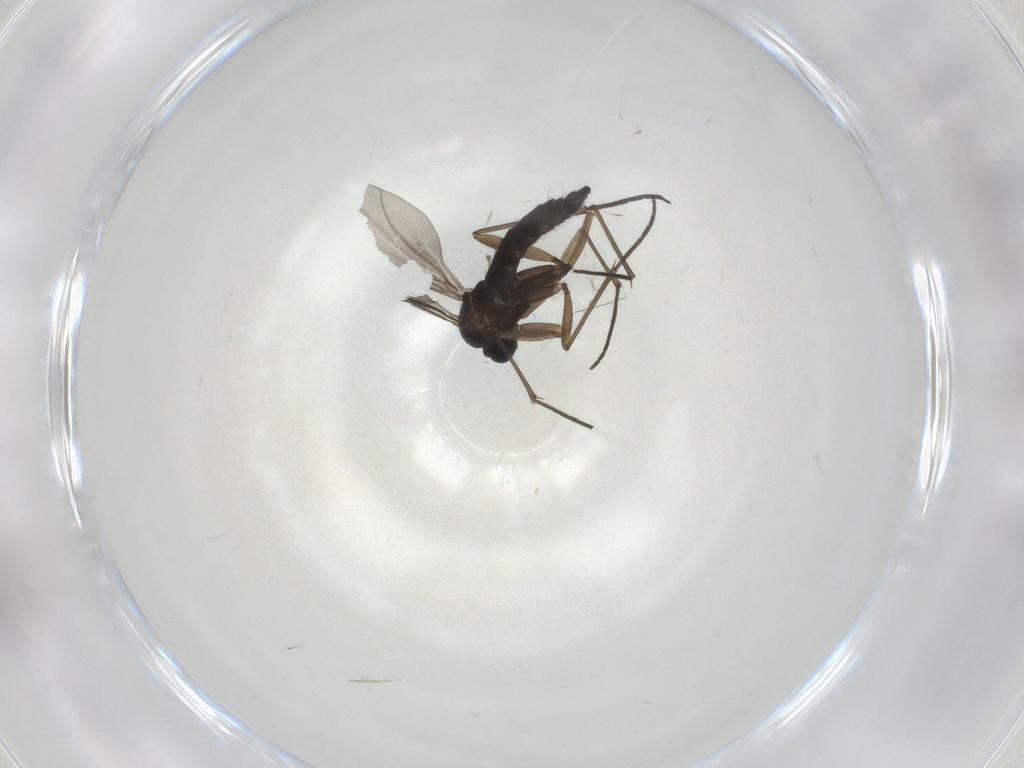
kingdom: Animalia
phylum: Arthropoda
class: Insecta
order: Diptera
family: Sciaridae
